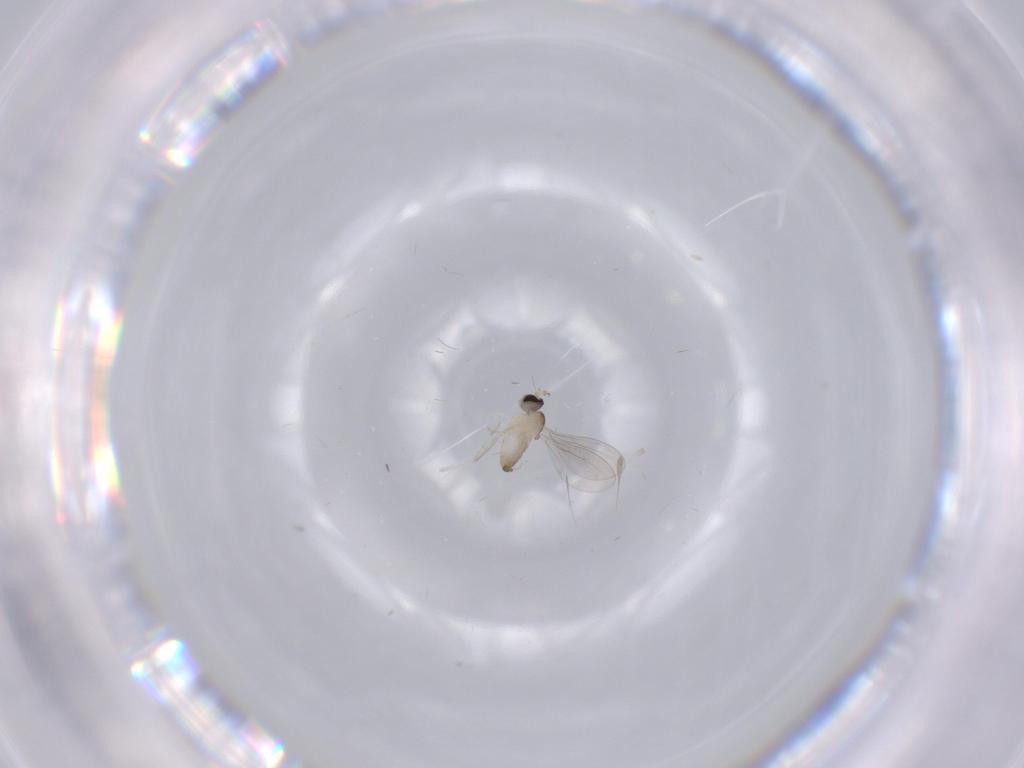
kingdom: Animalia
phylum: Arthropoda
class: Insecta
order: Diptera
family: Cecidomyiidae
